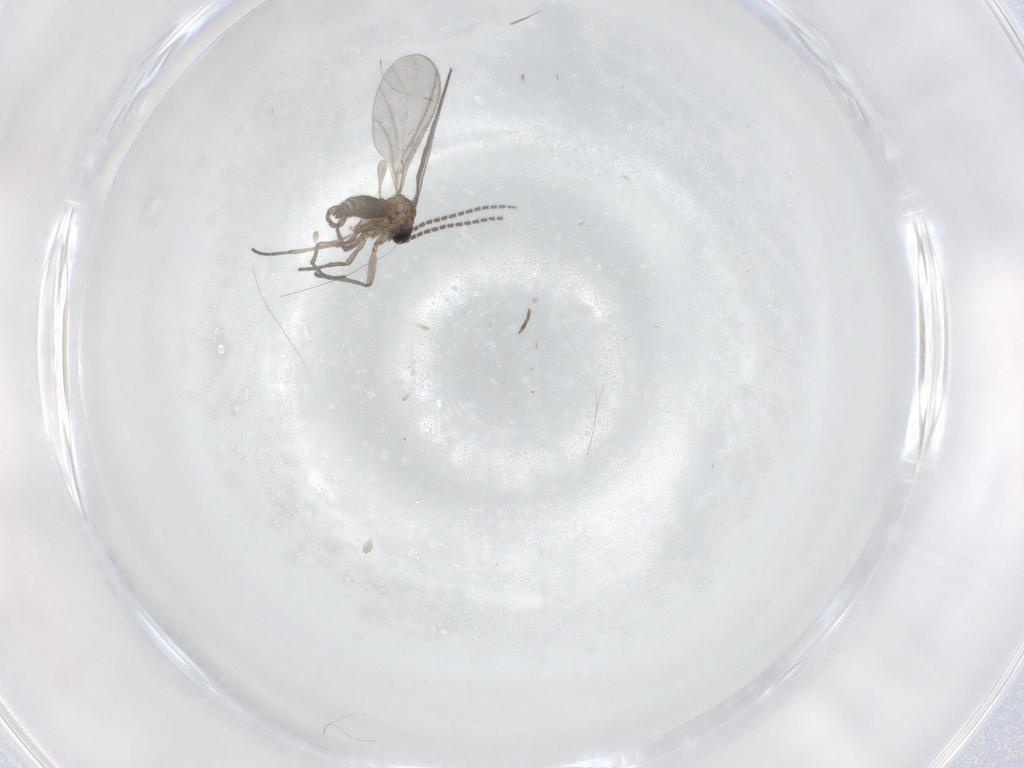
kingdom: Animalia
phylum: Arthropoda
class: Insecta
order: Diptera
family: Sciaridae
